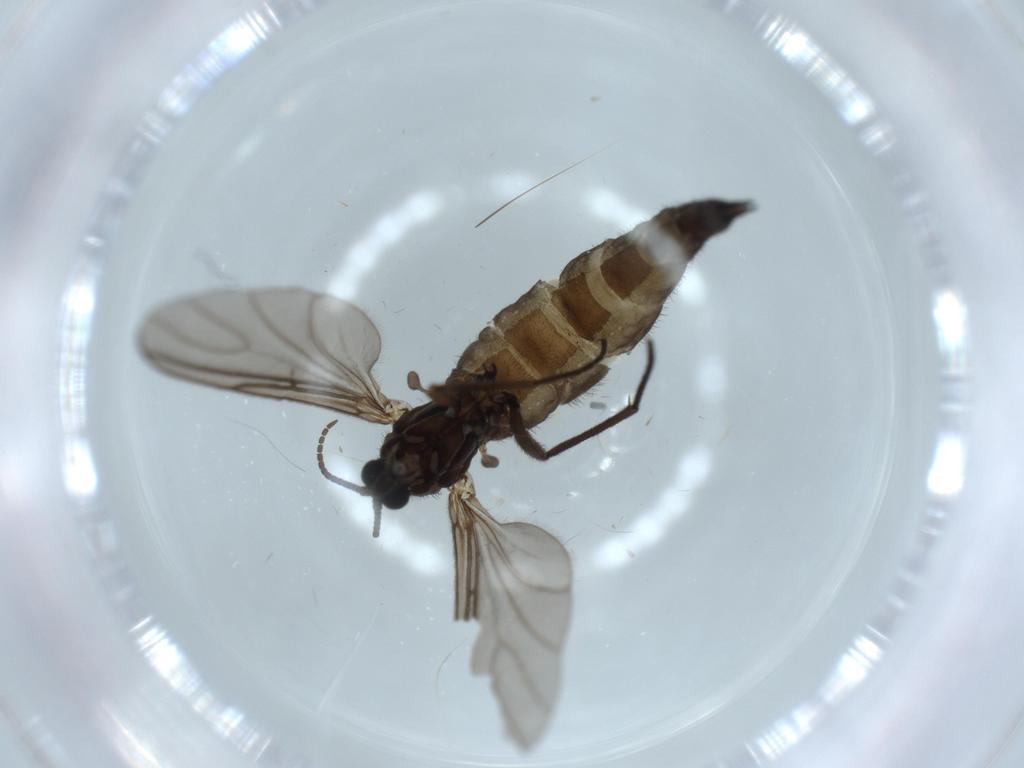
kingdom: Animalia
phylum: Arthropoda
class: Insecta
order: Diptera
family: Sciaridae
